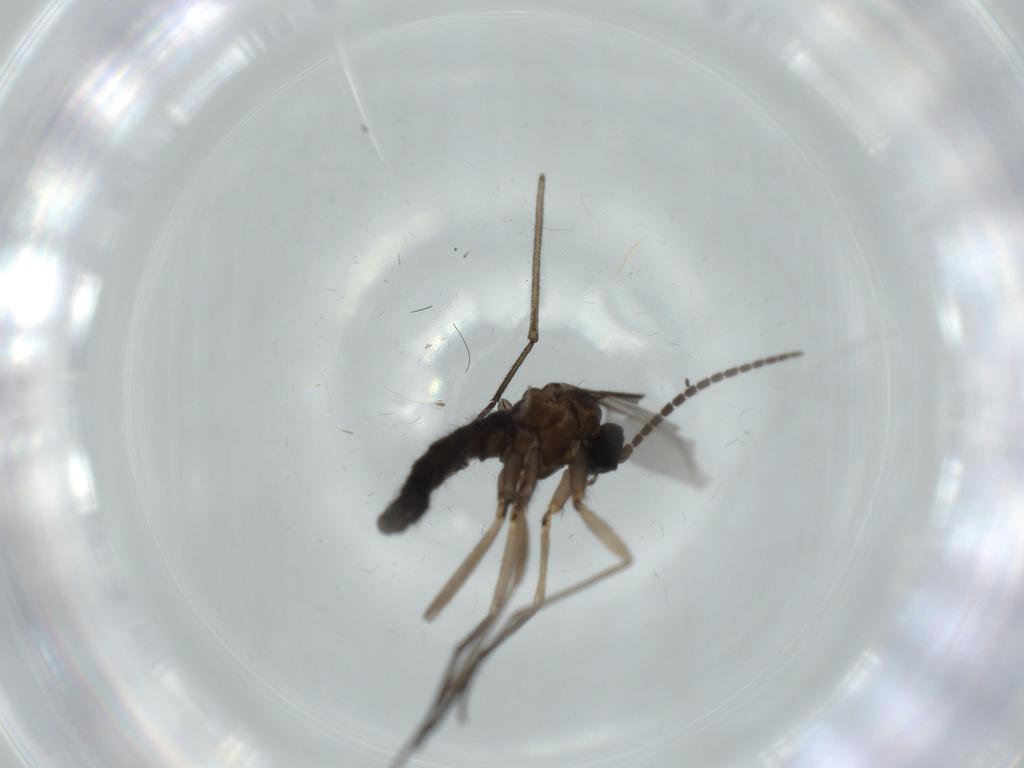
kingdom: Animalia
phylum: Arthropoda
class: Insecta
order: Diptera
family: Sciaridae
